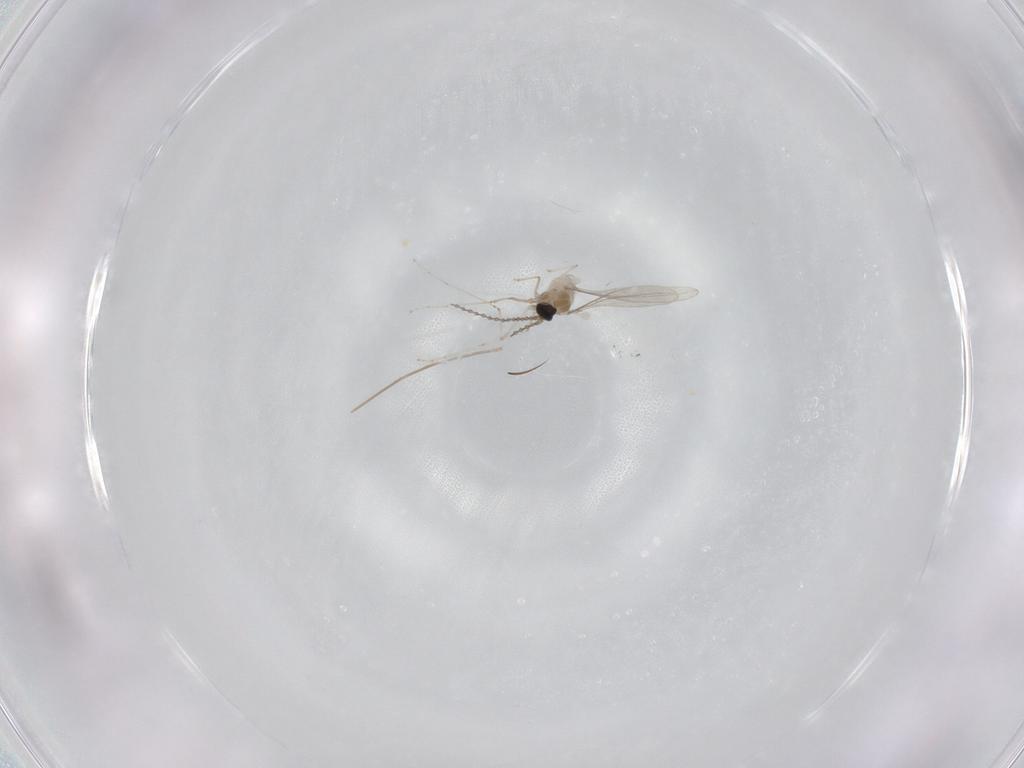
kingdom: Animalia
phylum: Arthropoda
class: Insecta
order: Diptera
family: Cecidomyiidae
